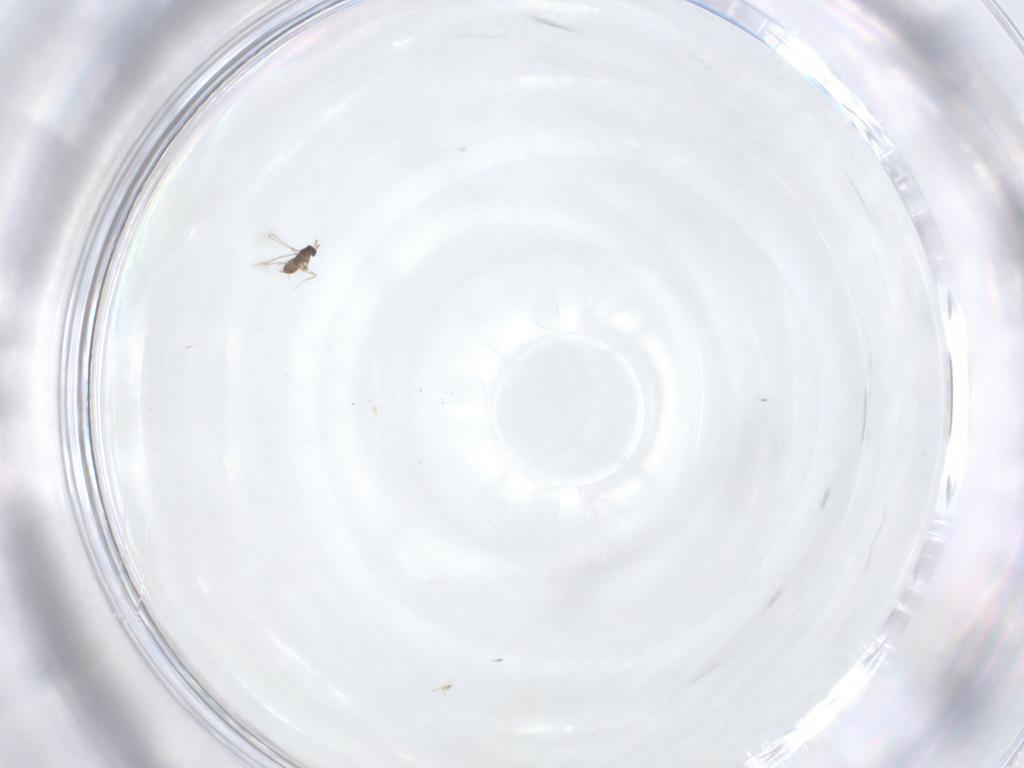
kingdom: Animalia
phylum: Arthropoda
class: Insecta
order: Hymenoptera
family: Mymaridae
